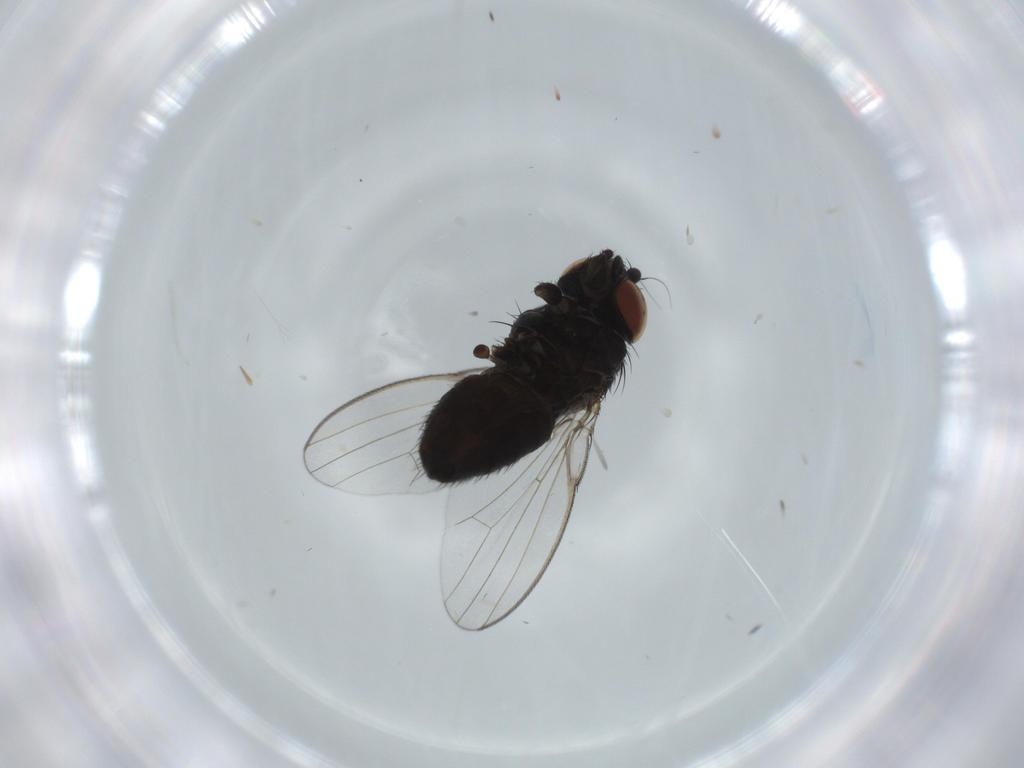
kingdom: Animalia
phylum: Arthropoda
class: Insecta
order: Diptera
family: Milichiidae
